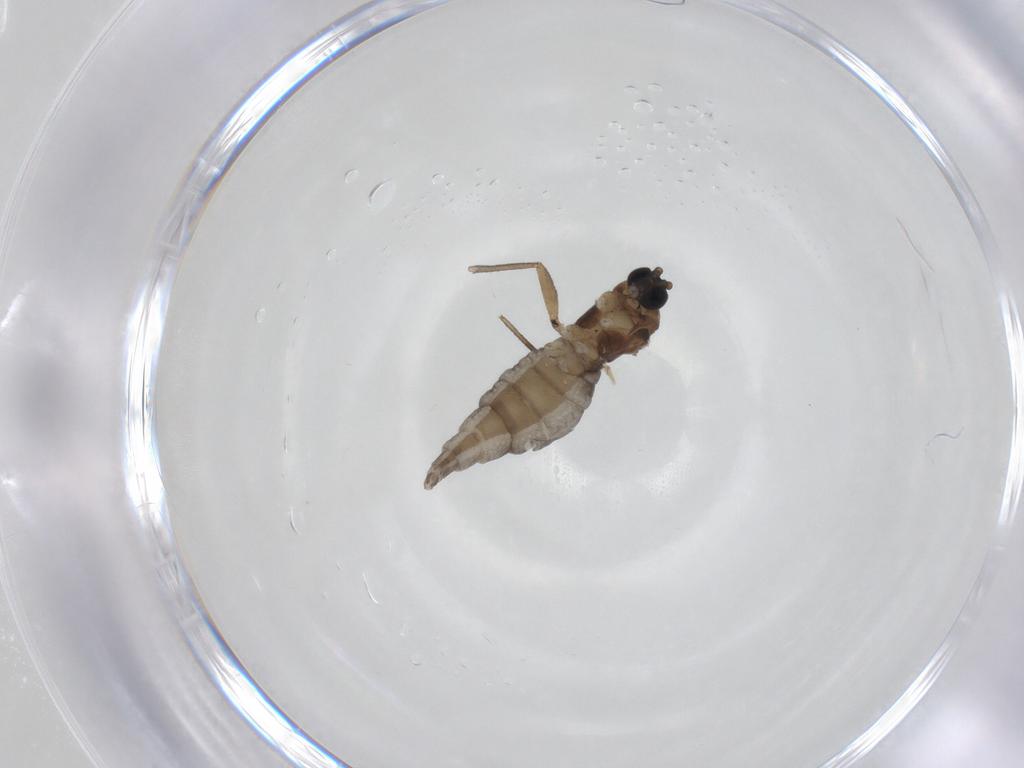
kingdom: Animalia
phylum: Arthropoda
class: Insecta
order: Diptera
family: Sciaridae
